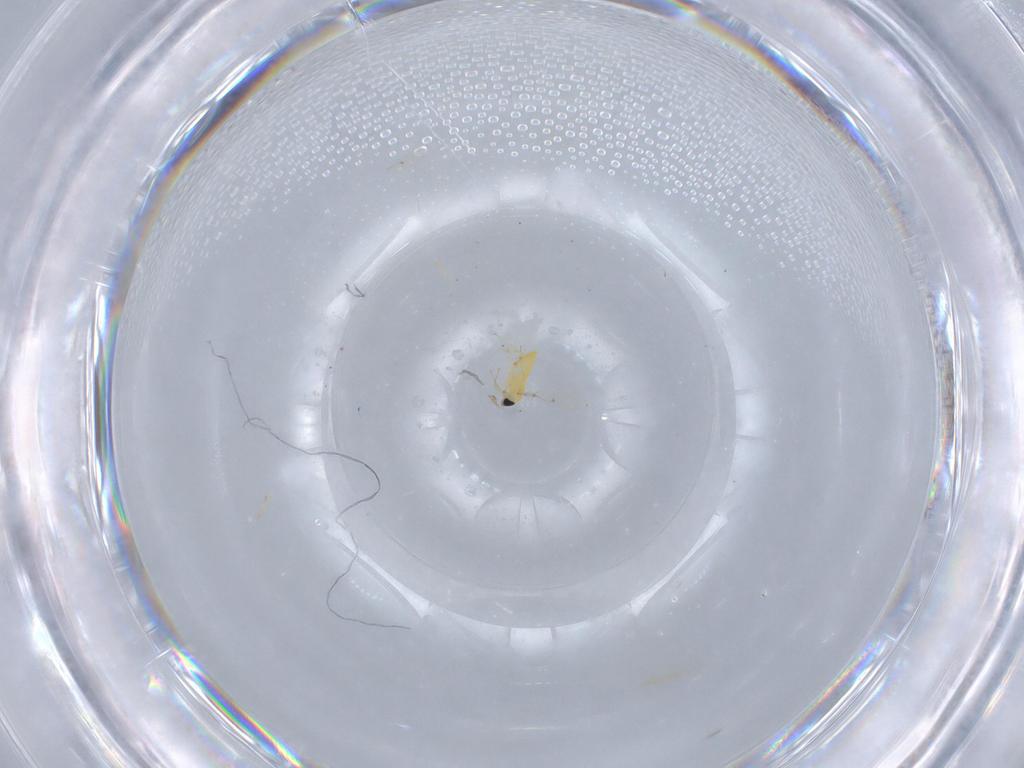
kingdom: Animalia
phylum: Arthropoda
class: Insecta
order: Hymenoptera
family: Trichogrammatidae
